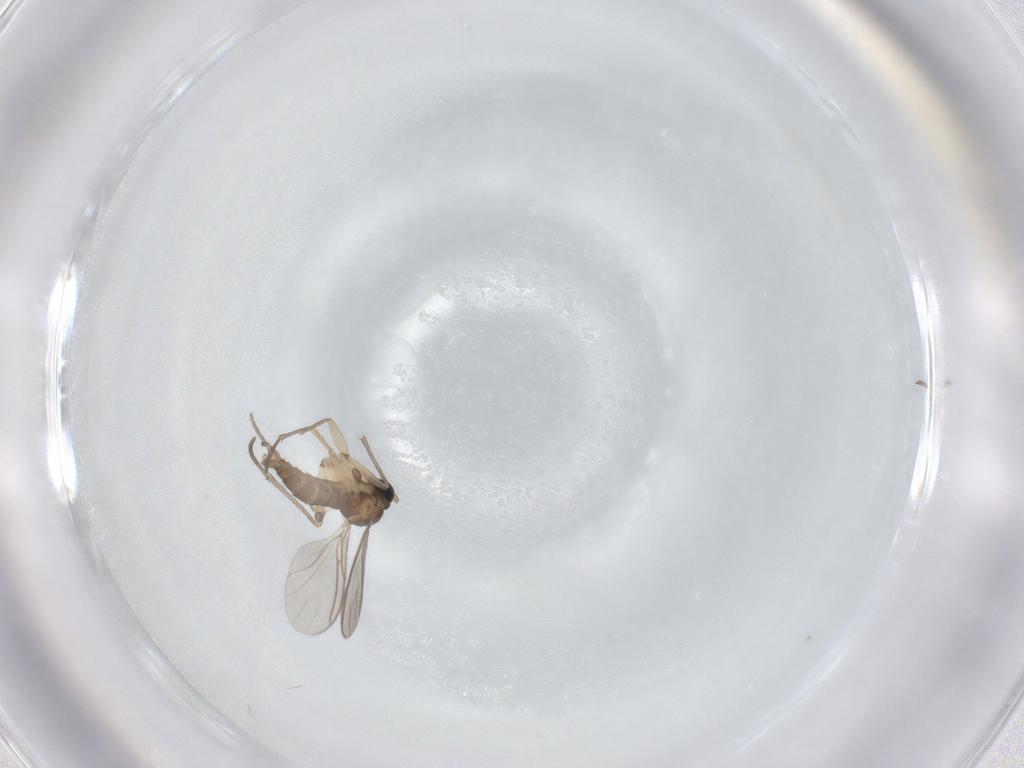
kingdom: Animalia
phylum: Arthropoda
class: Insecta
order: Diptera
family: Sciaridae
